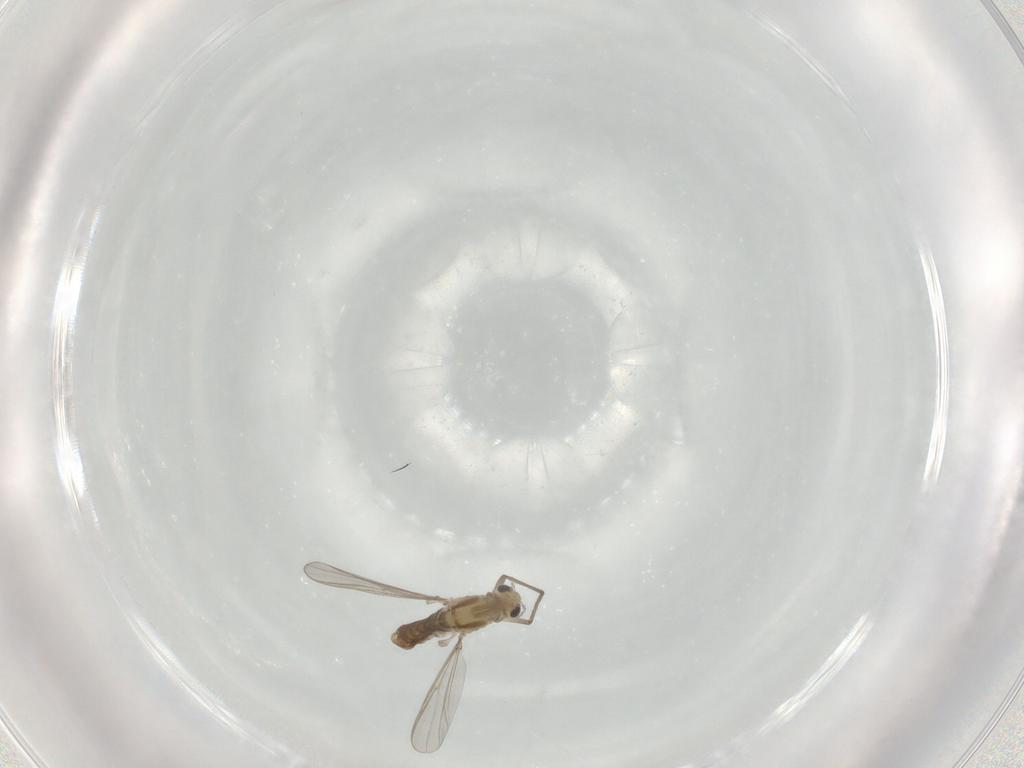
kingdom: Animalia
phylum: Arthropoda
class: Insecta
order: Diptera
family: Chironomidae
